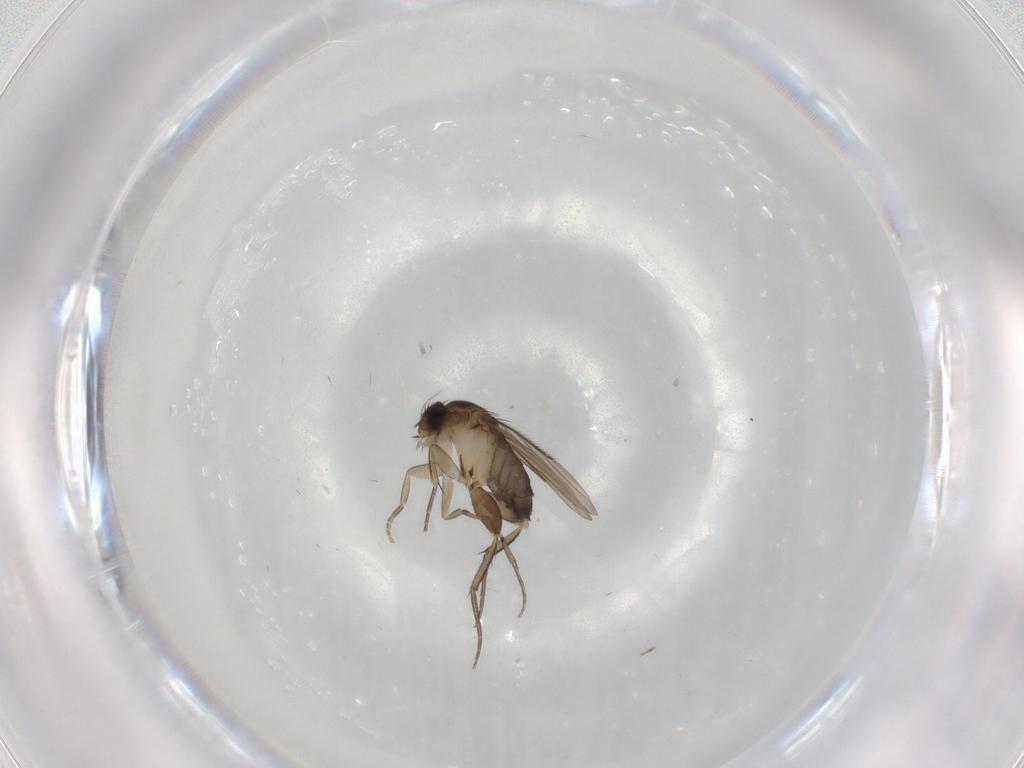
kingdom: Animalia
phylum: Arthropoda
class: Insecta
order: Diptera
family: Phoridae
